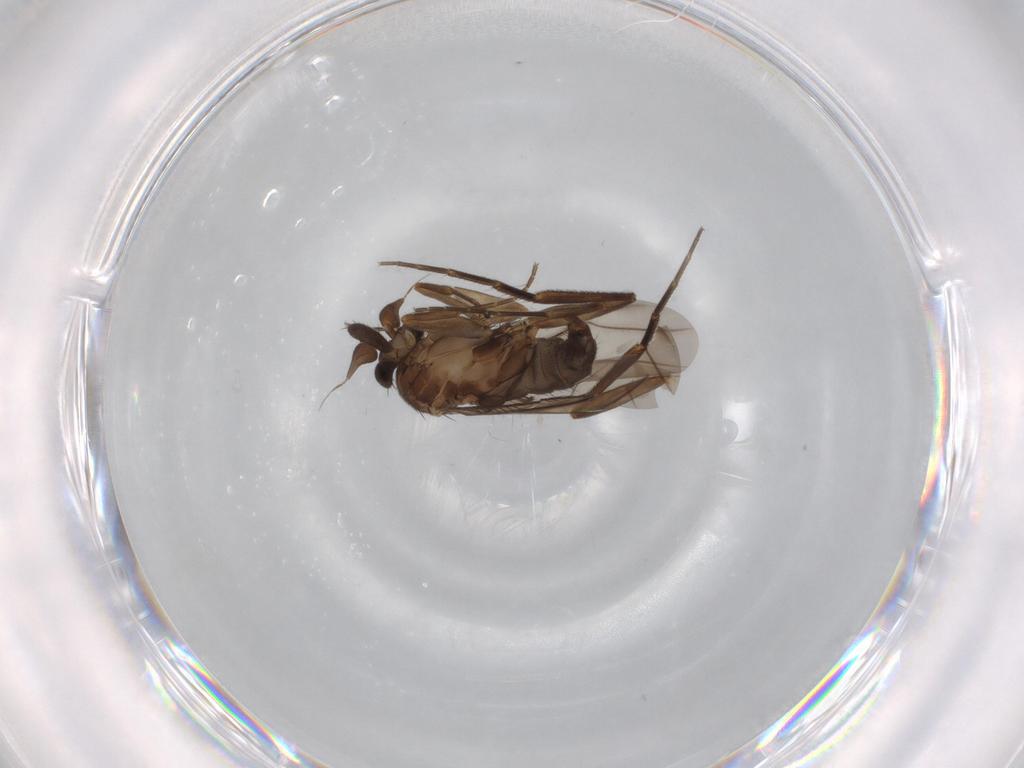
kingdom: Animalia
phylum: Arthropoda
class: Insecta
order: Diptera
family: Phoridae
